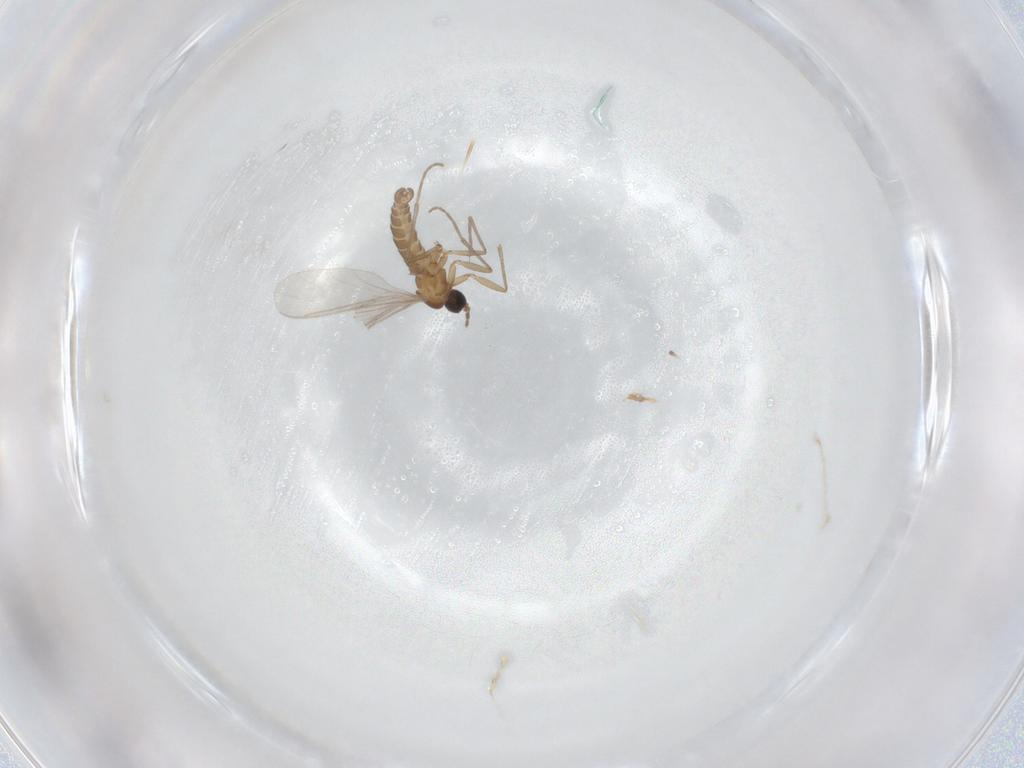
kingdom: Animalia
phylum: Arthropoda
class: Insecta
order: Diptera
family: Sciaridae
